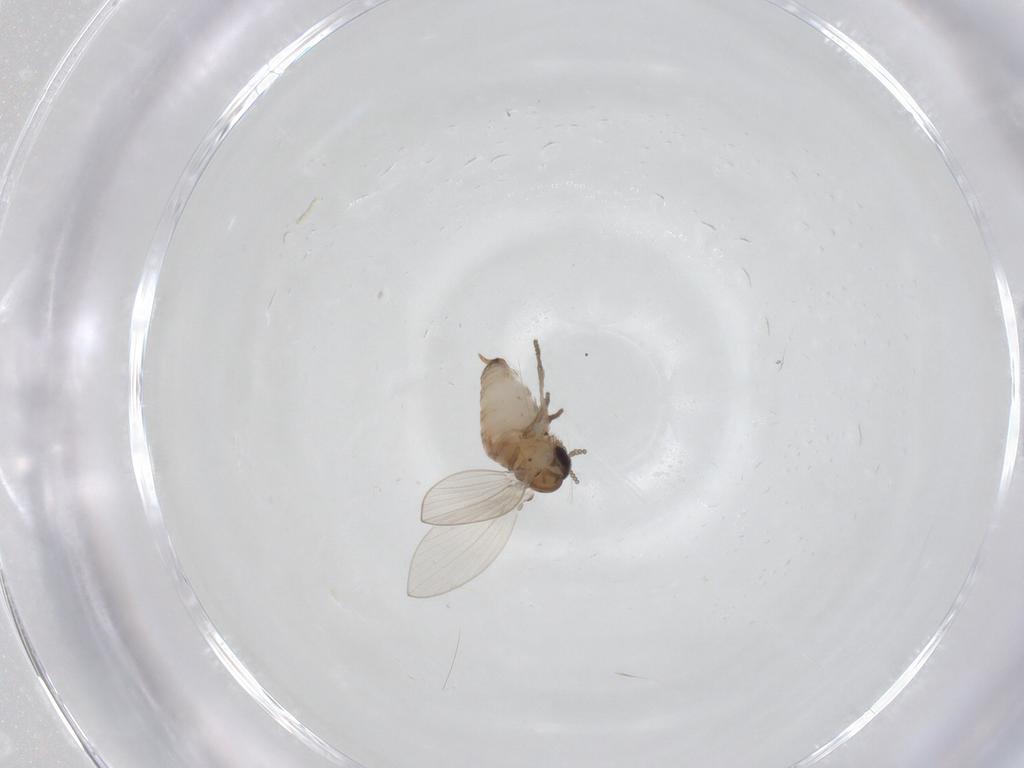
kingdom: Animalia
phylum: Arthropoda
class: Insecta
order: Diptera
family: Psychodidae
